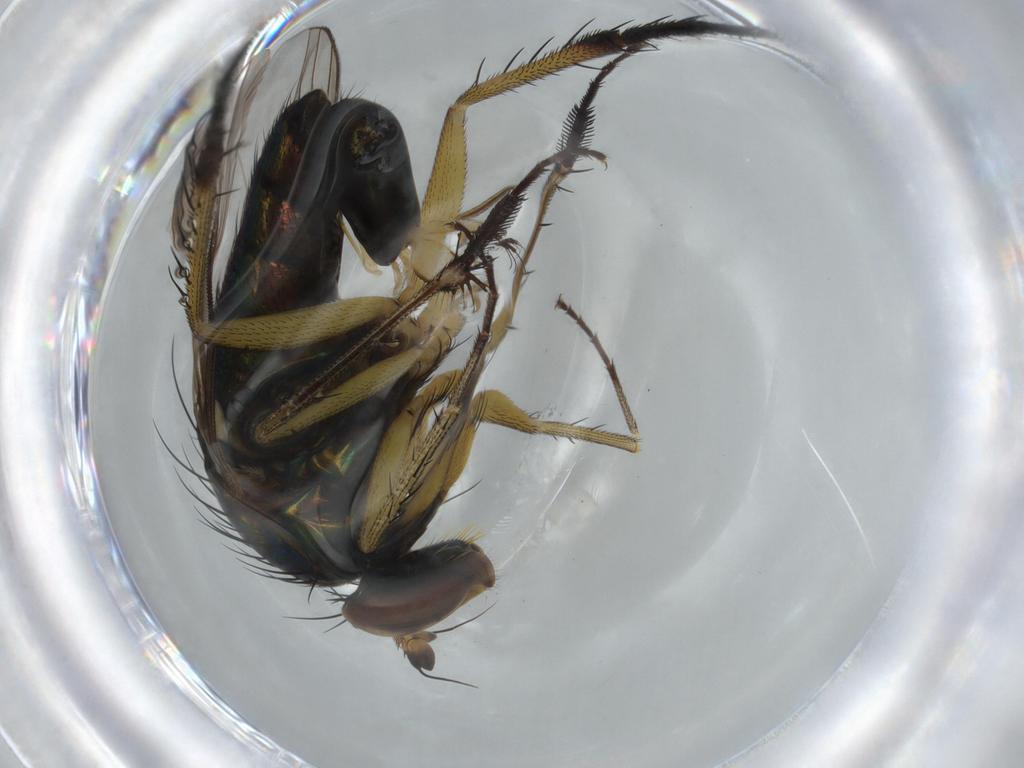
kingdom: Animalia
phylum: Arthropoda
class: Insecta
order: Diptera
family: Dolichopodidae
